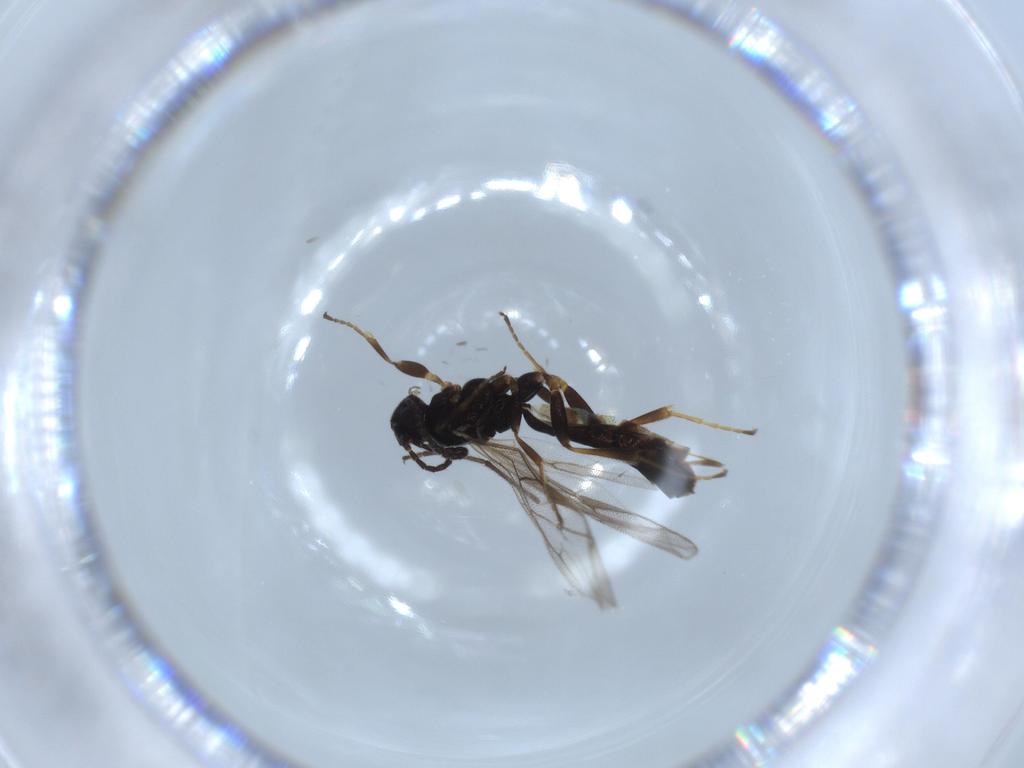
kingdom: Animalia
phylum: Arthropoda
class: Insecta
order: Hymenoptera
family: Ichneumonidae
